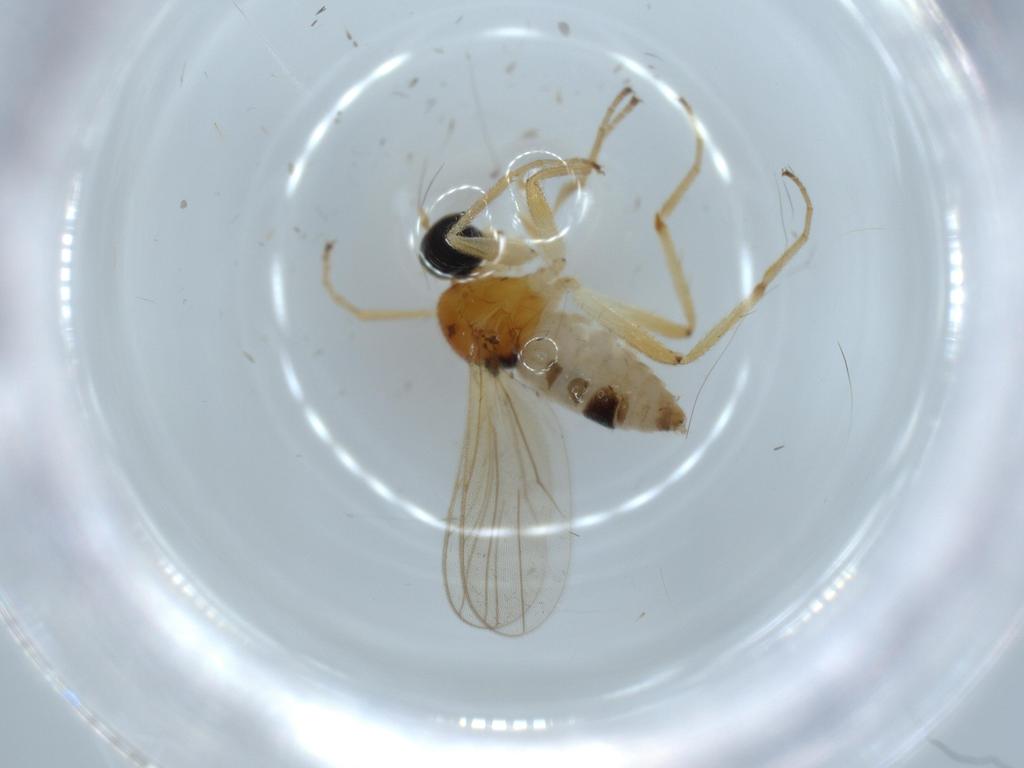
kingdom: Animalia
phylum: Arthropoda
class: Insecta
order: Diptera
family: Hybotidae
